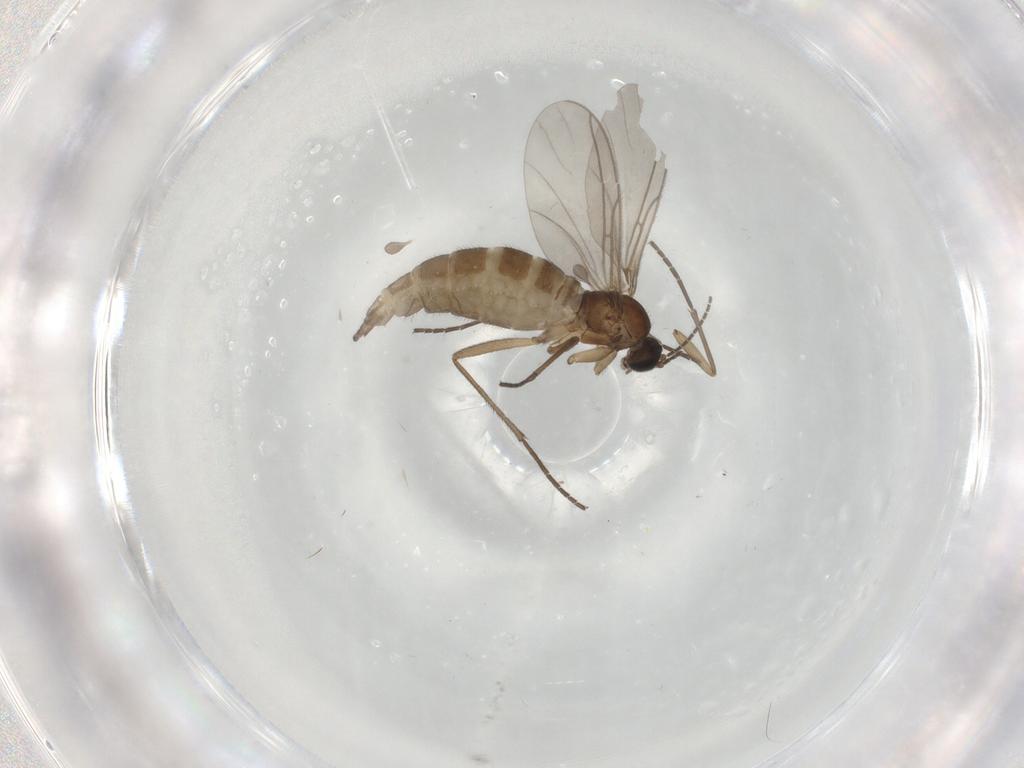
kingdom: Animalia
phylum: Arthropoda
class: Insecta
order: Diptera
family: Sciaridae
